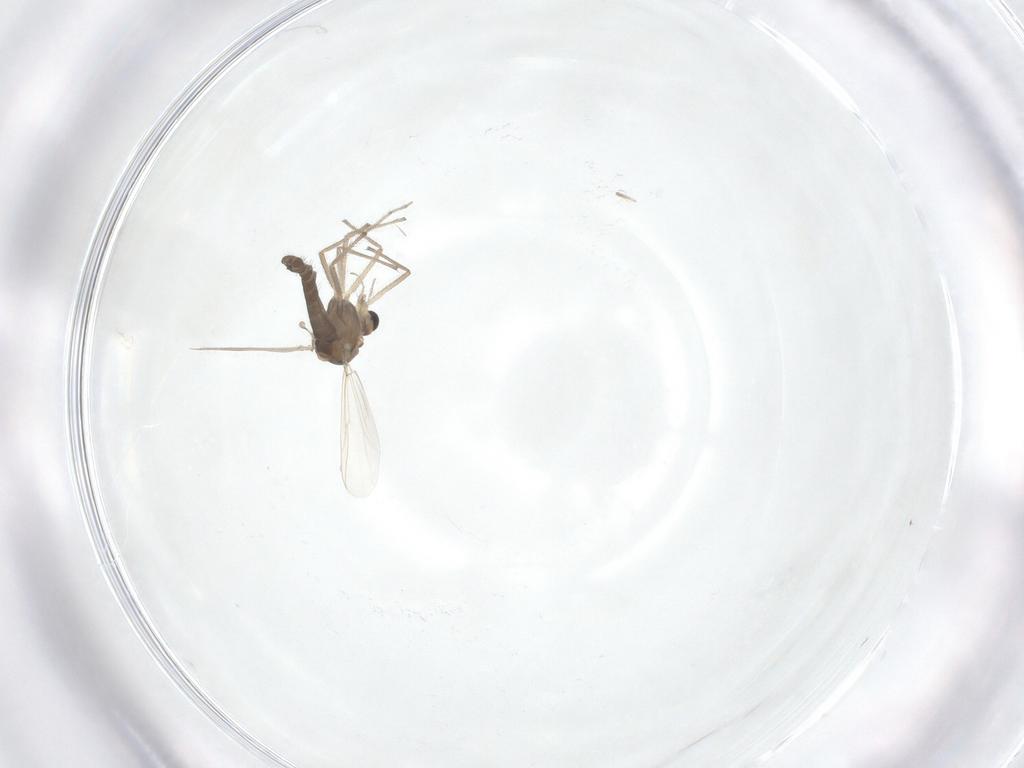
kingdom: Animalia
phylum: Arthropoda
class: Insecta
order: Diptera
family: Chironomidae
